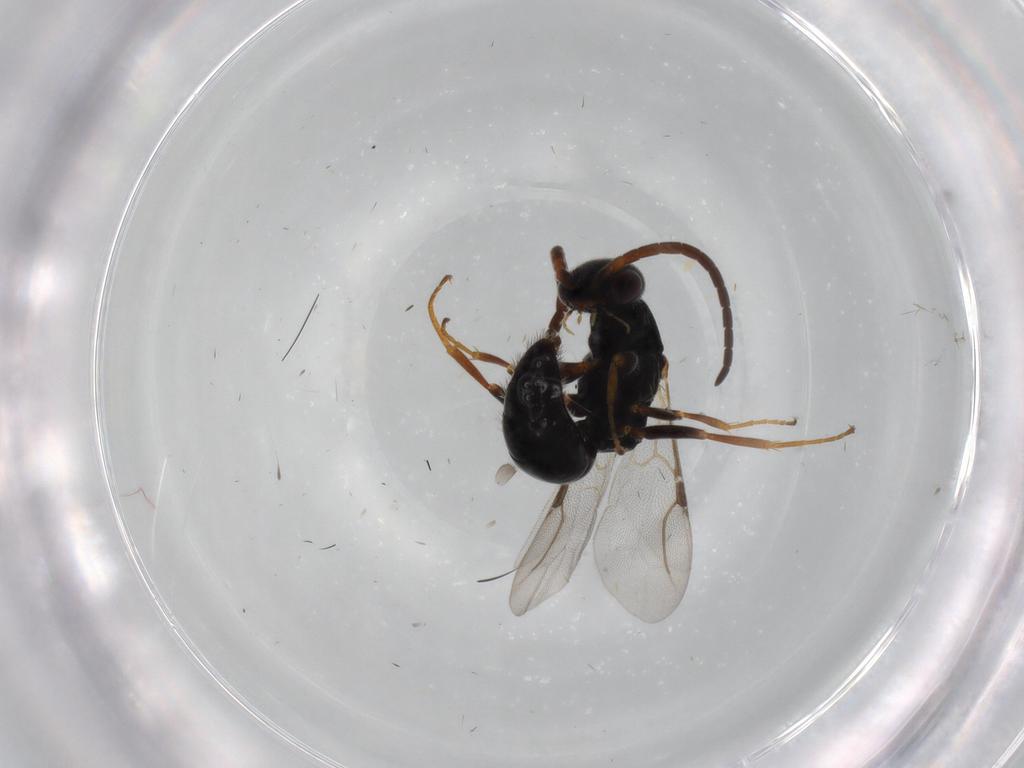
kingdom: Animalia
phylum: Arthropoda
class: Insecta
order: Hymenoptera
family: Bethylidae
